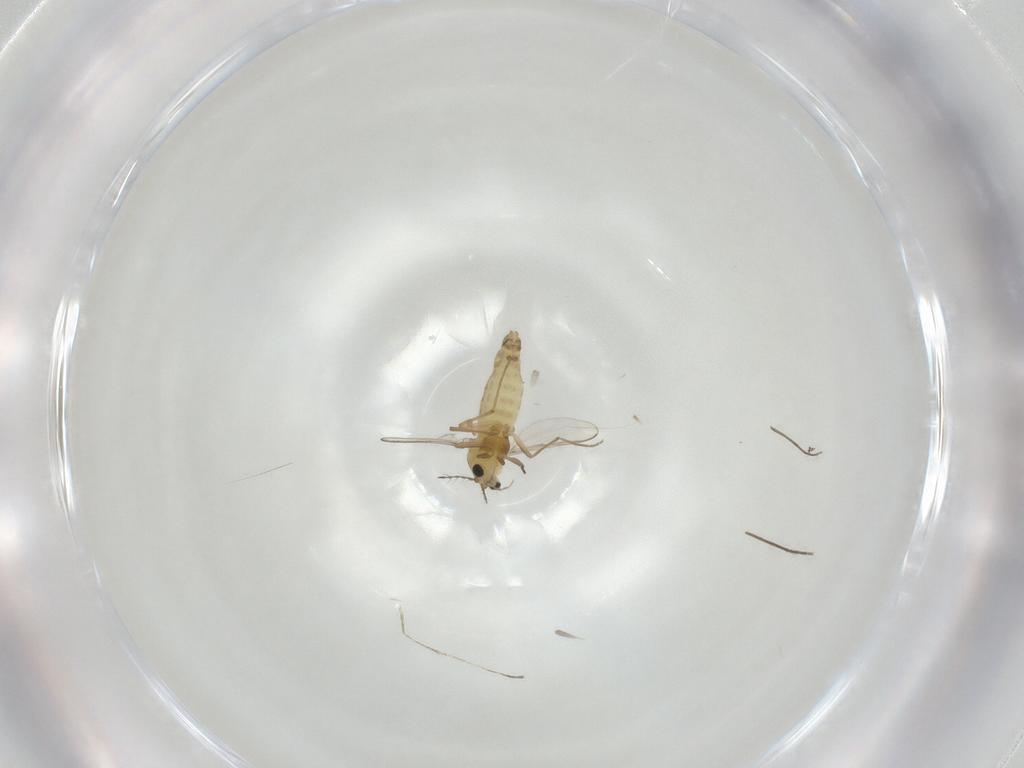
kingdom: Animalia
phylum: Arthropoda
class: Insecta
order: Diptera
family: Chironomidae
